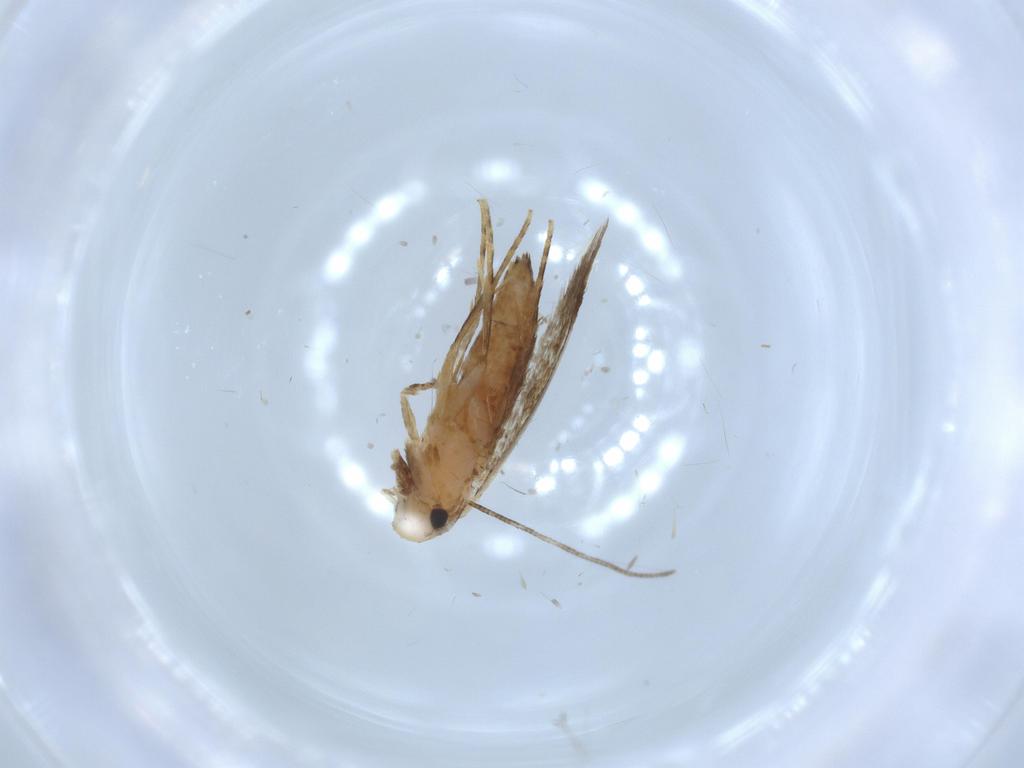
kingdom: Animalia
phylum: Arthropoda
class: Insecta
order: Lepidoptera
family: Tineidae
